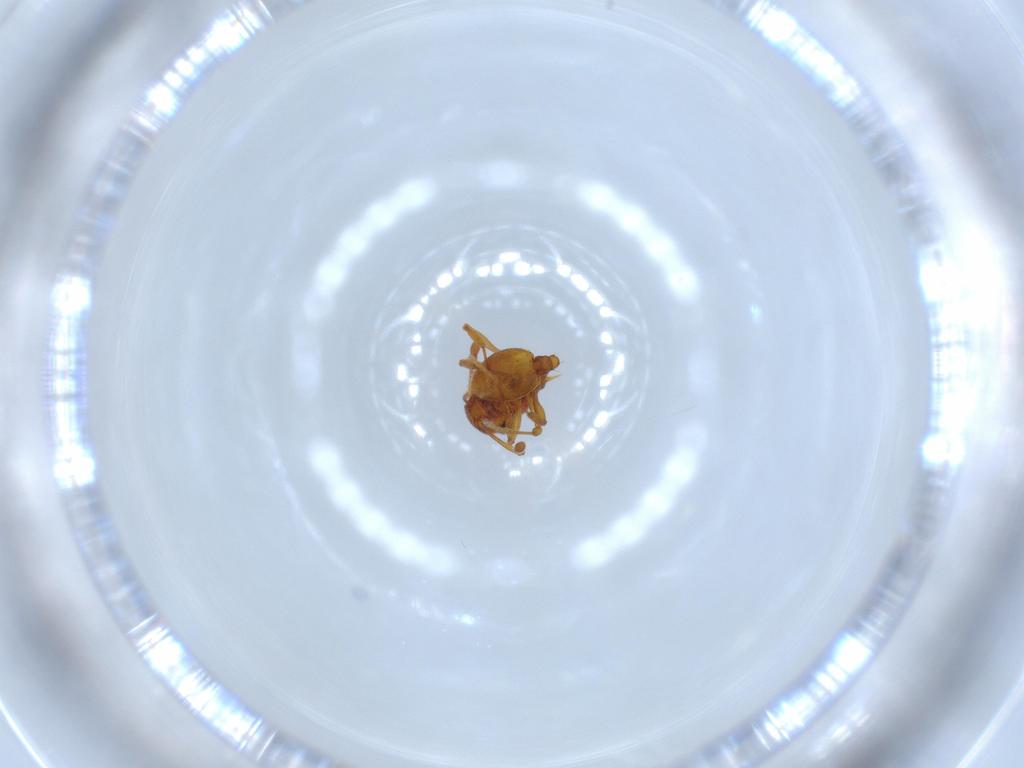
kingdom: Animalia
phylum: Arthropoda
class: Insecta
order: Hymenoptera
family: Formicidae
